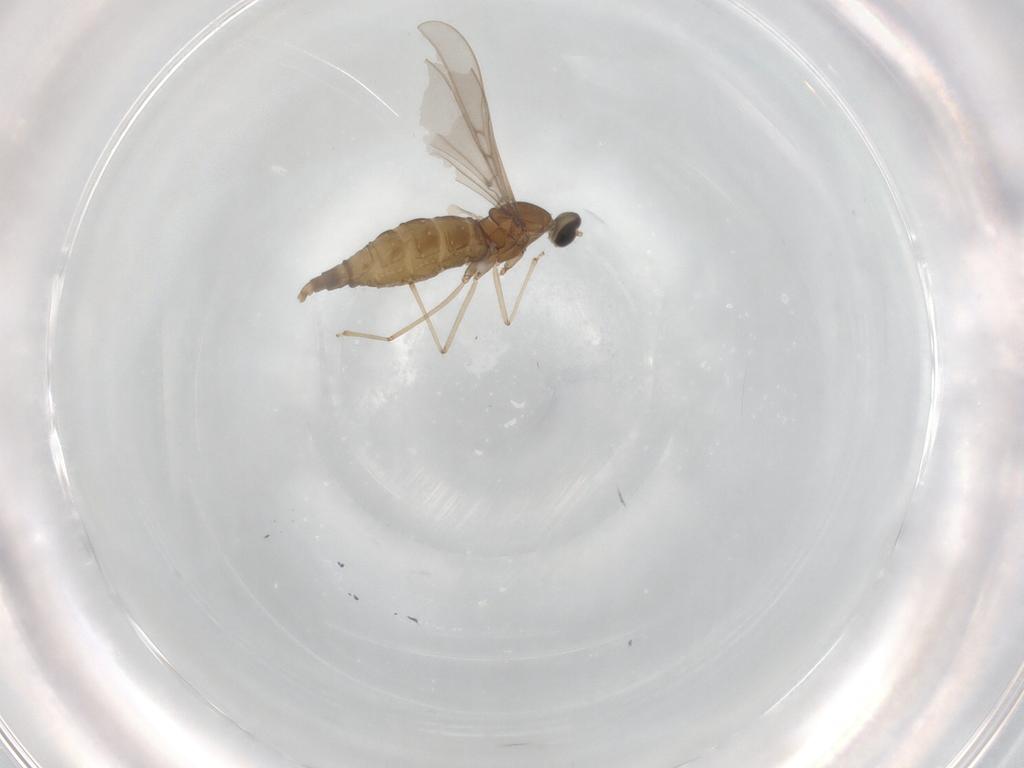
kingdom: Animalia
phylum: Arthropoda
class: Insecta
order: Diptera
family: Cecidomyiidae
